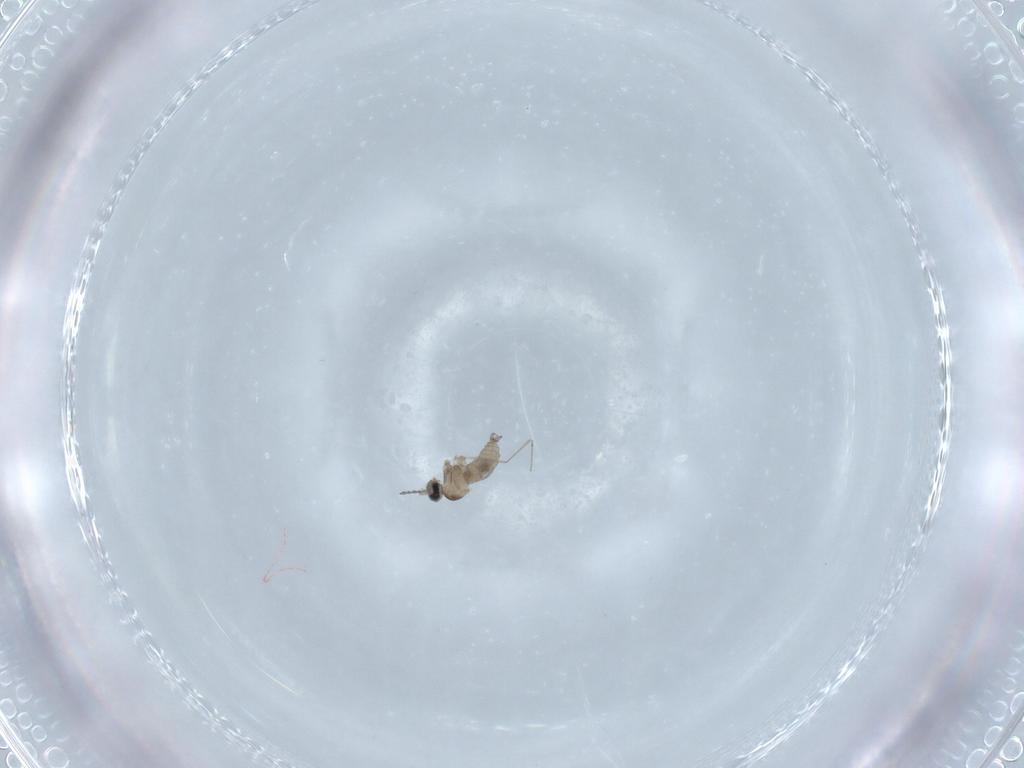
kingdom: Animalia
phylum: Arthropoda
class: Insecta
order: Diptera
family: Cecidomyiidae
